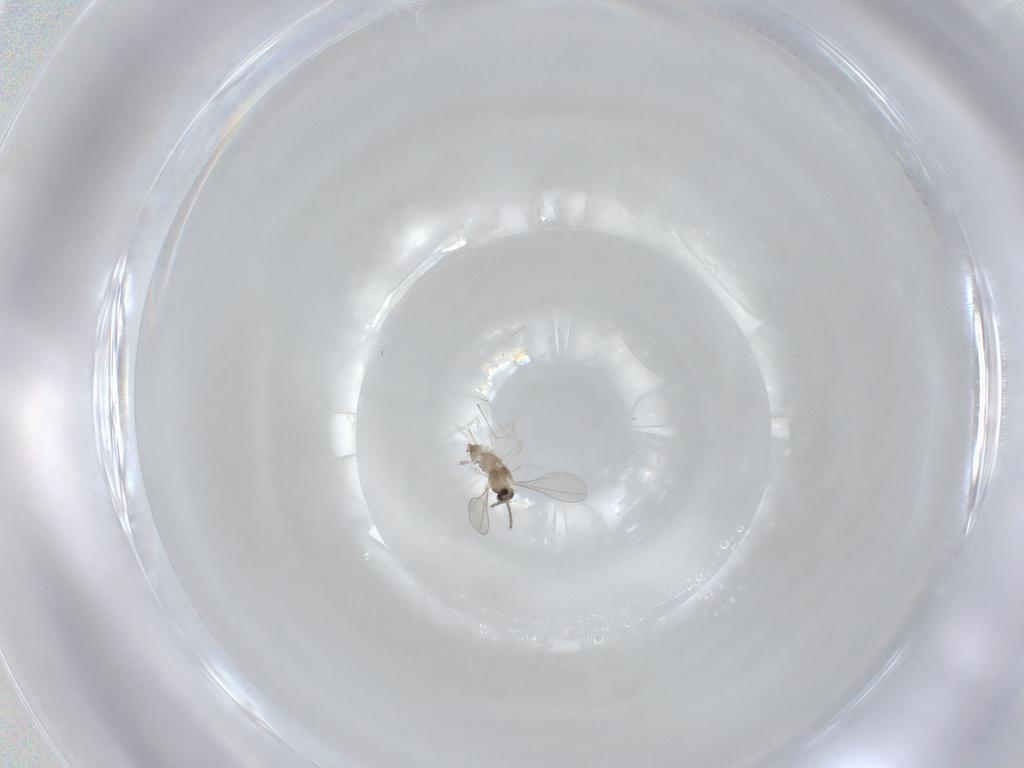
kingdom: Animalia
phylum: Arthropoda
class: Insecta
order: Diptera
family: Cecidomyiidae
